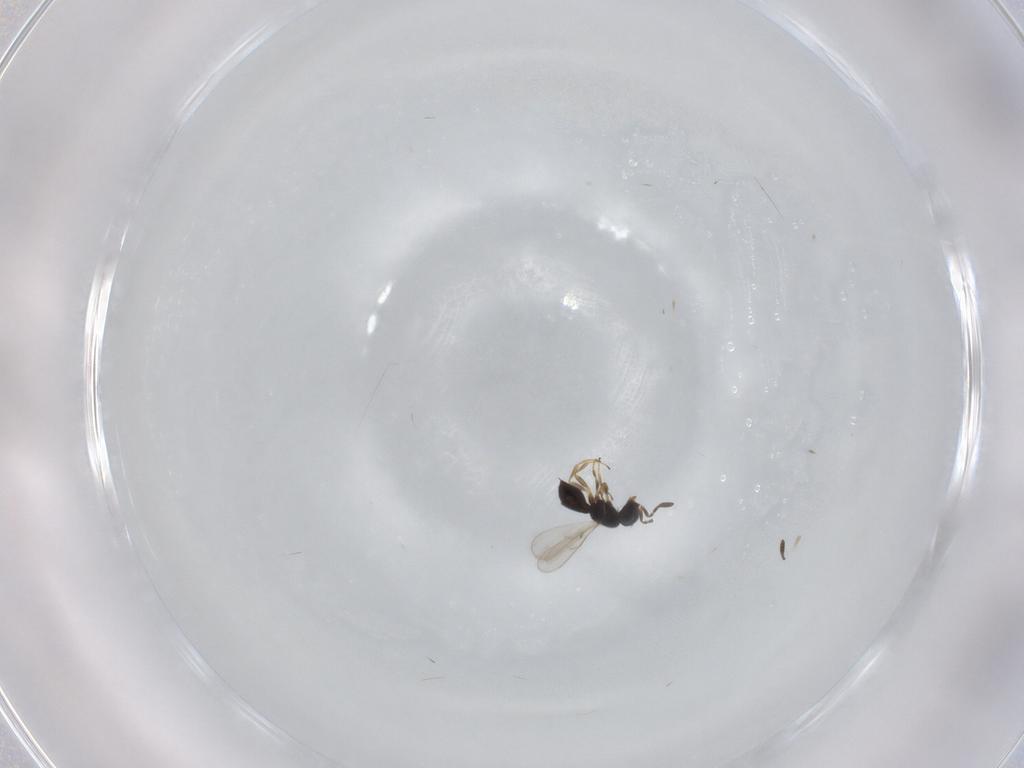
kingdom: Animalia
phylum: Arthropoda
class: Insecta
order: Hymenoptera
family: Scelionidae
